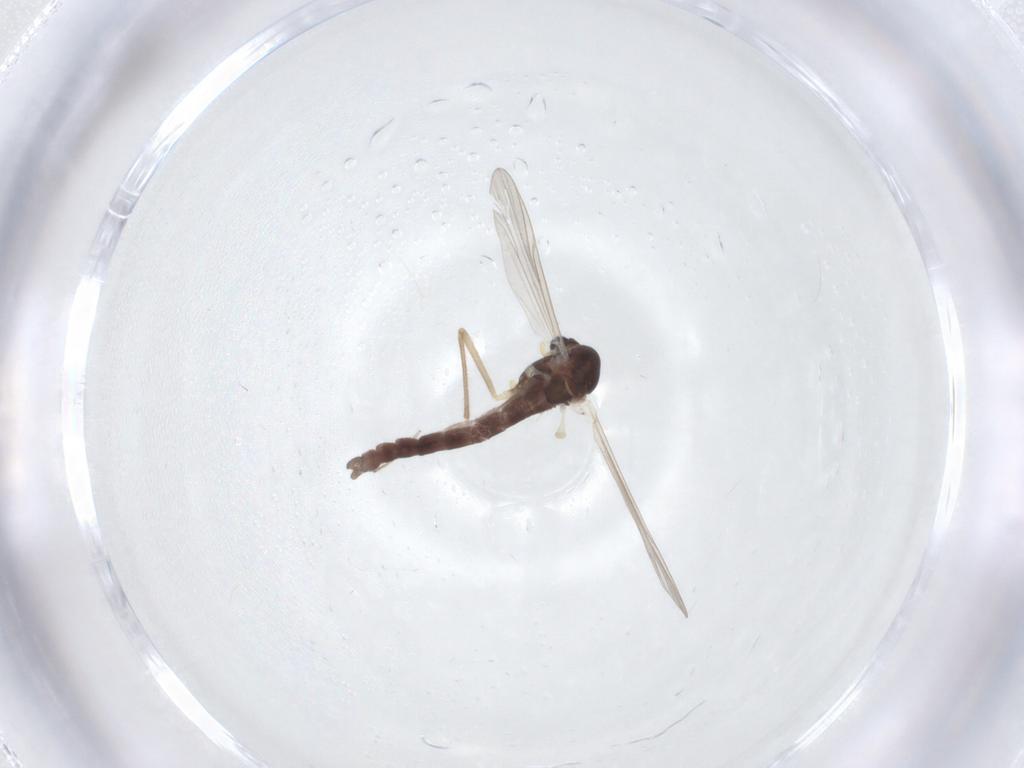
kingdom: Animalia
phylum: Arthropoda
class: Insecta
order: Diptera
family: Chironomidae
